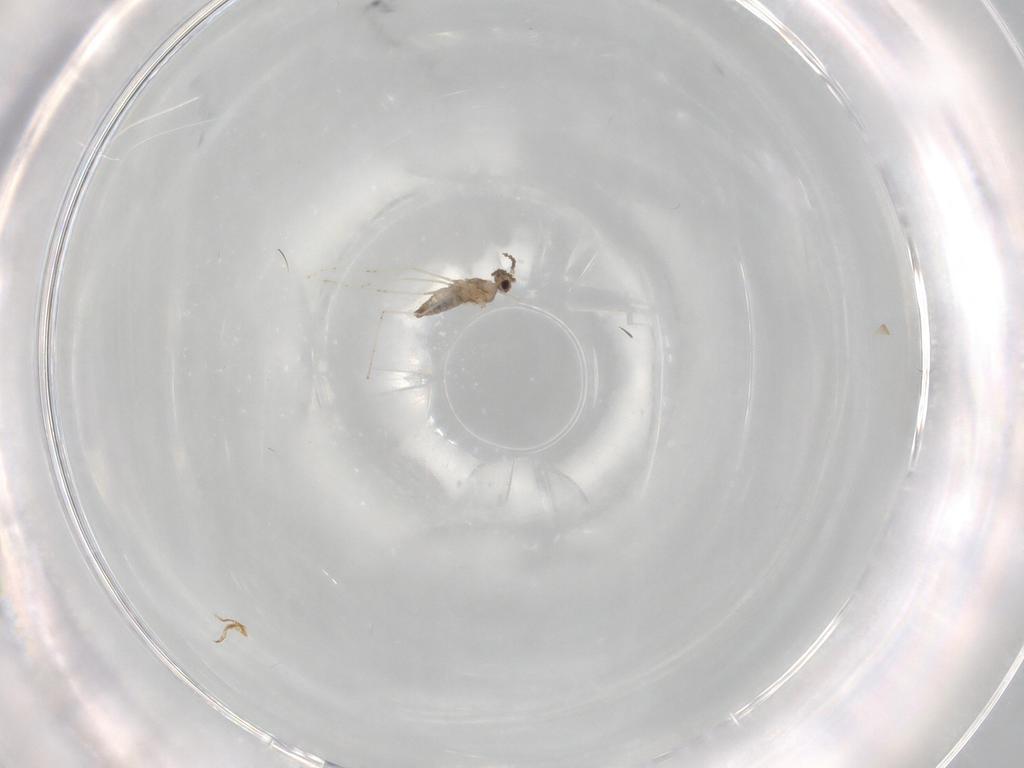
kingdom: Animalia
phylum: Arthropoda
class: Insecta
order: Diptera
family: Cecidomyiidae
